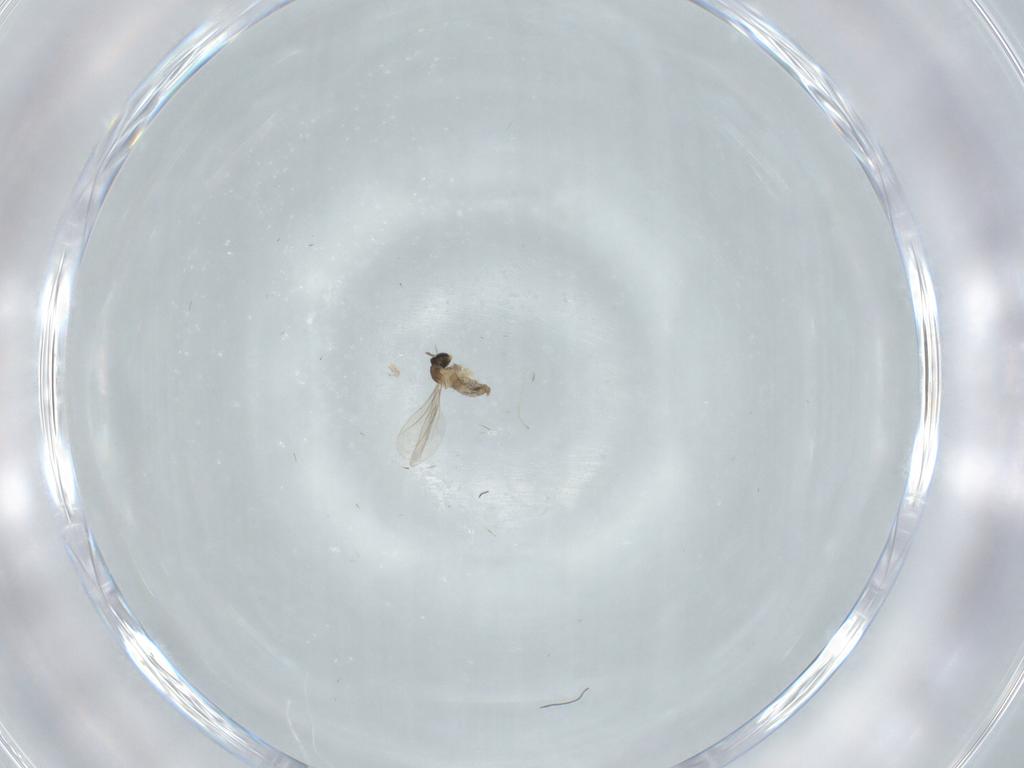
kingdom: Animalia
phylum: Arthropoda
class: Insecta
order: Diptera
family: Cecidomyiidae
